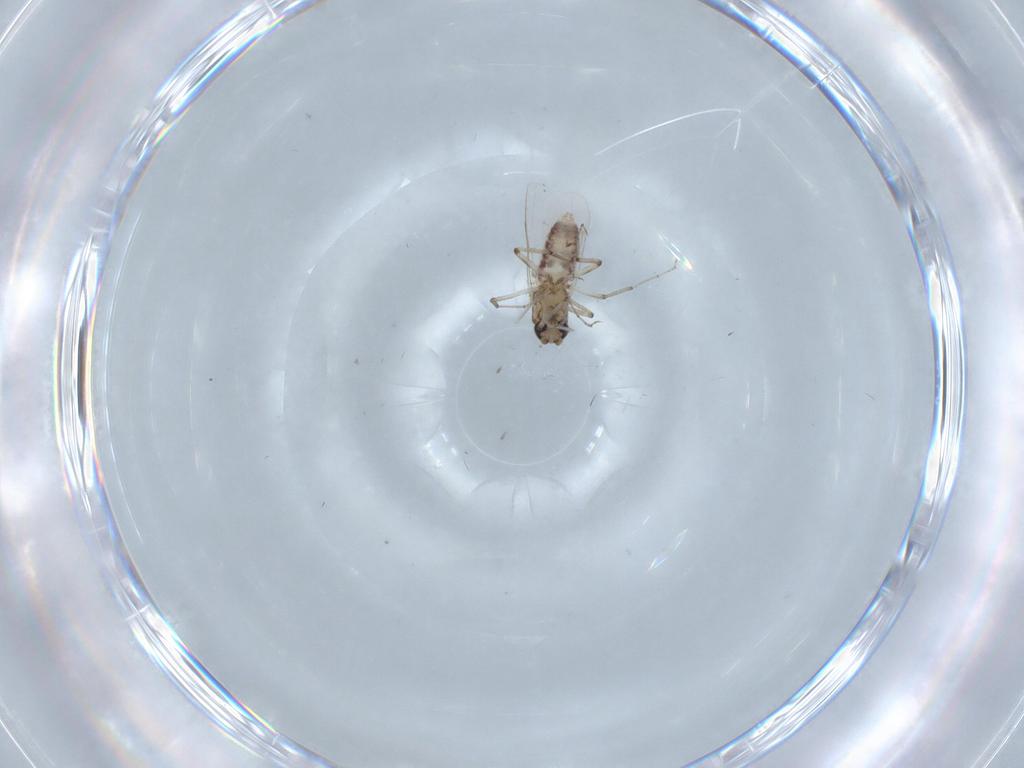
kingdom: Animalia
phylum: Arthropoda
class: Insecta
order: Diptera
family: Ceratopogonidae
